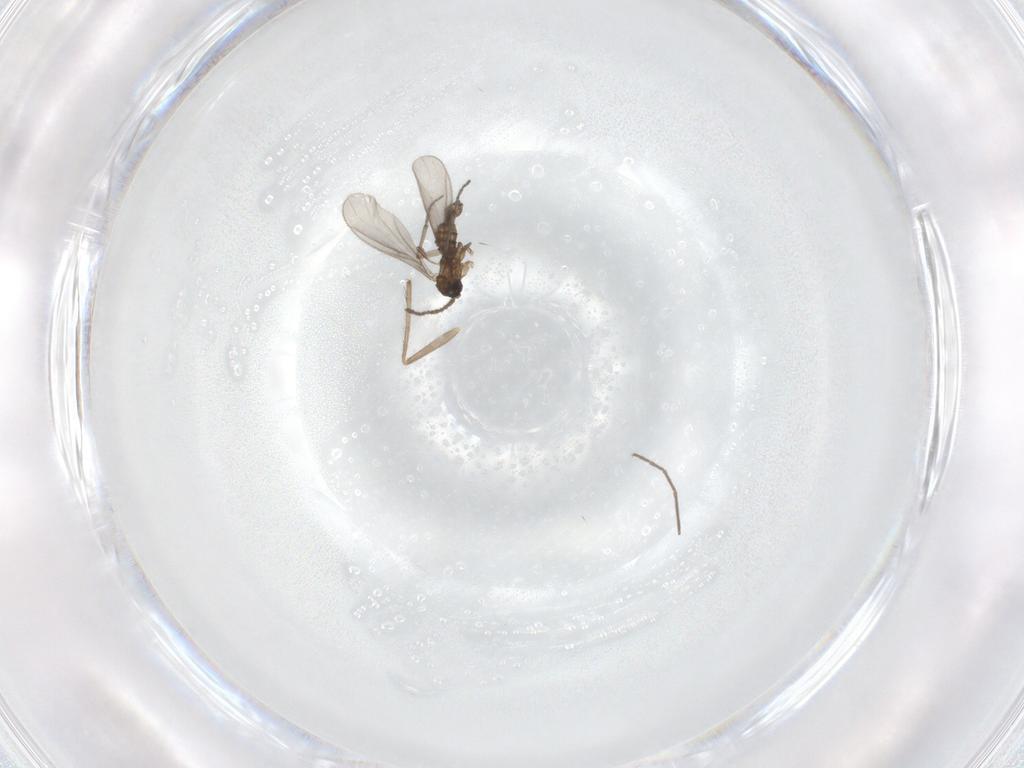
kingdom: Animalia
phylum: Arthropoda
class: Insecta
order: Diptera
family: Sciaridae
